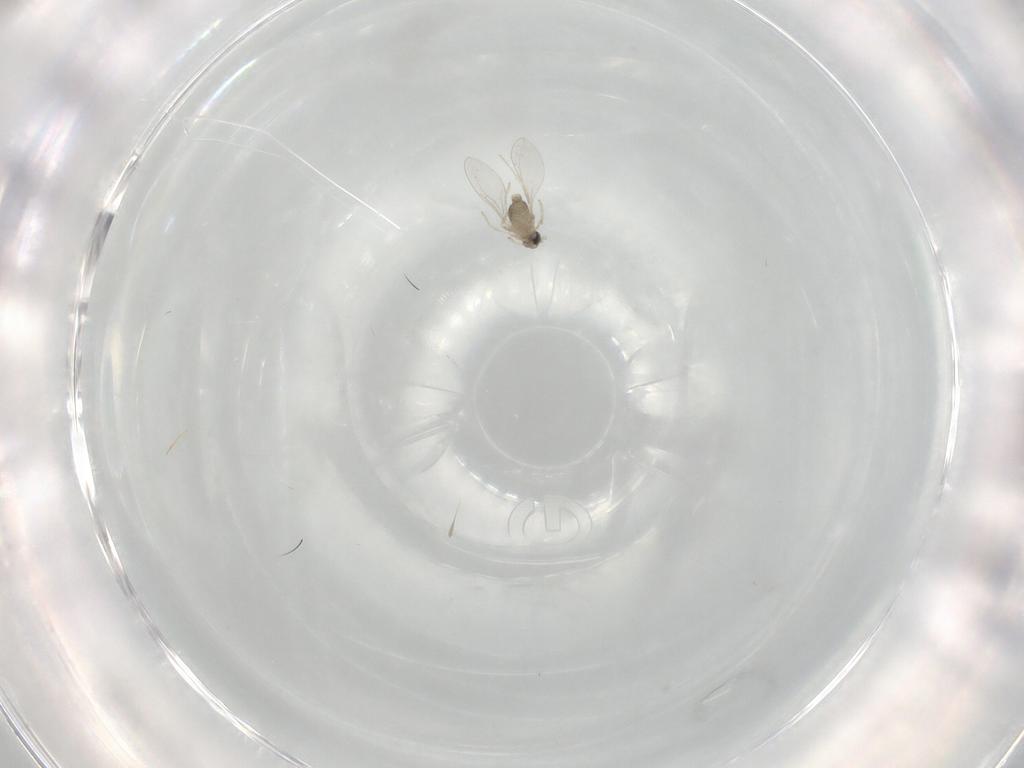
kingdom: Animalia
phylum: Arthropoda
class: Insecta
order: Diptera
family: Cecidomyiidae
